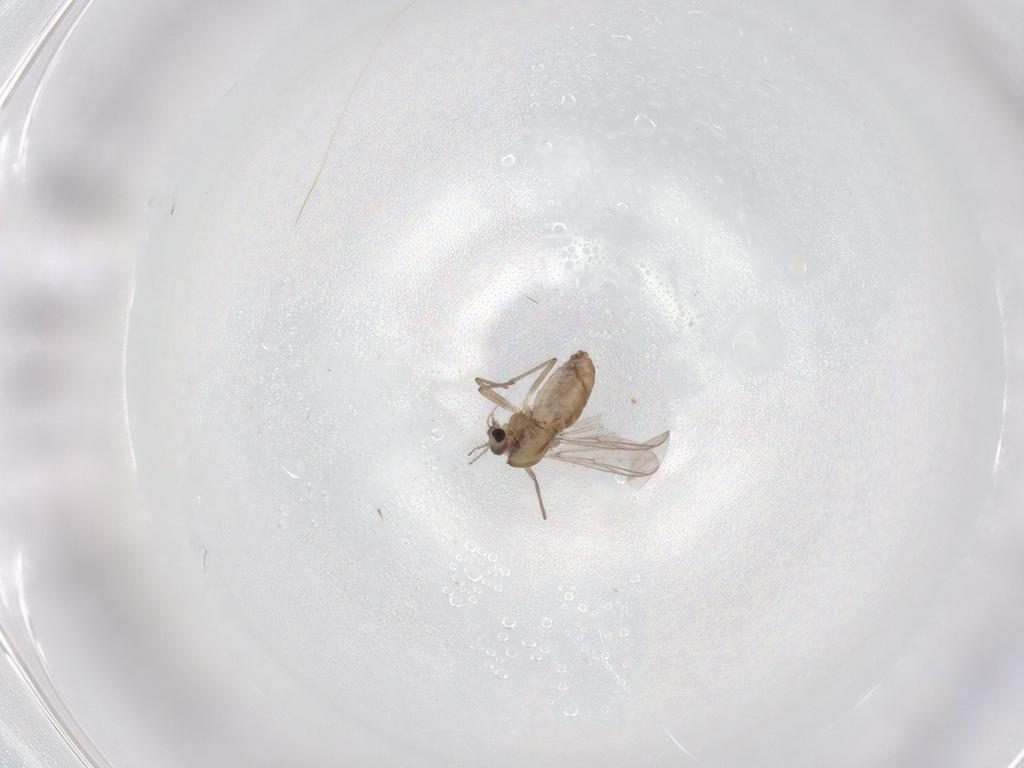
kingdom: Animalia
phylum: Arthropoda
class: Insecta
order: Diptera
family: Chironomidae
